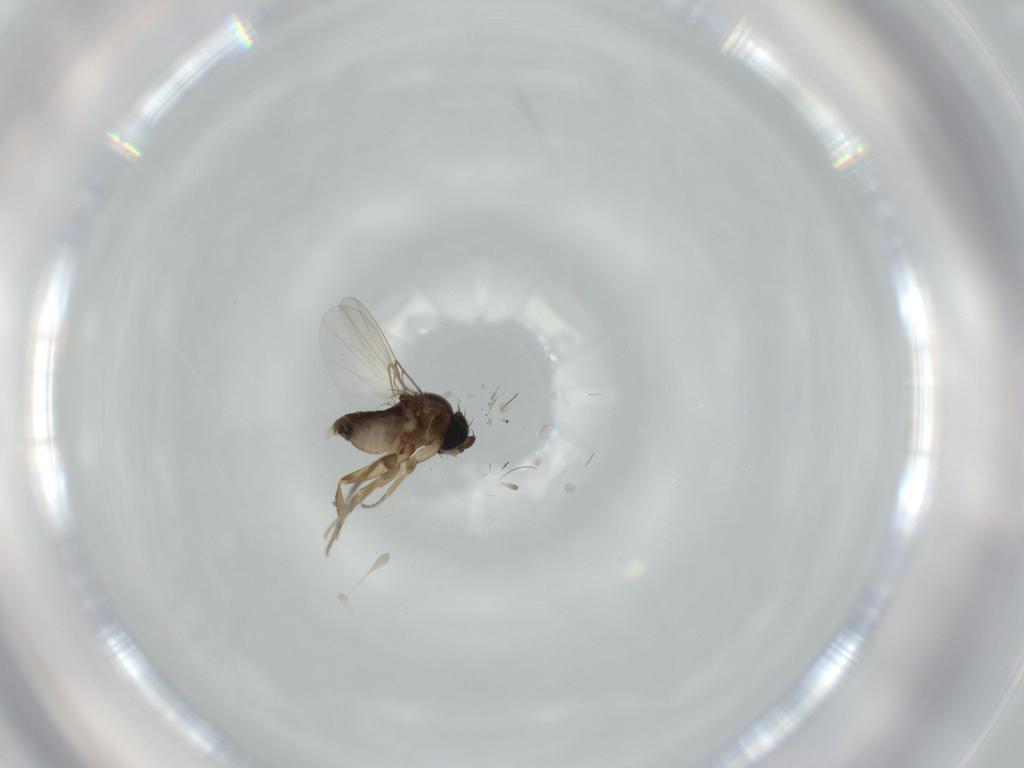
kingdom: Animalia
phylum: Arthropoda
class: Insecta
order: Diptera
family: Phoridae
